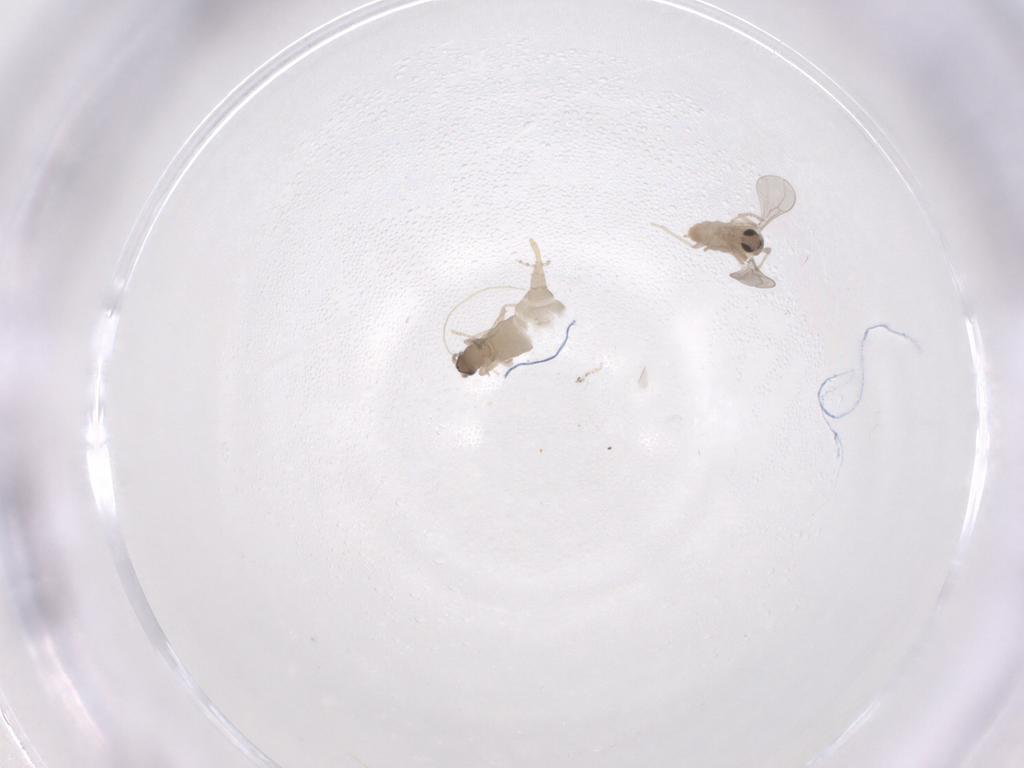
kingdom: Animalia
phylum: Arthropoda
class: Insecta
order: Diptera
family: Cecidomyiidae
